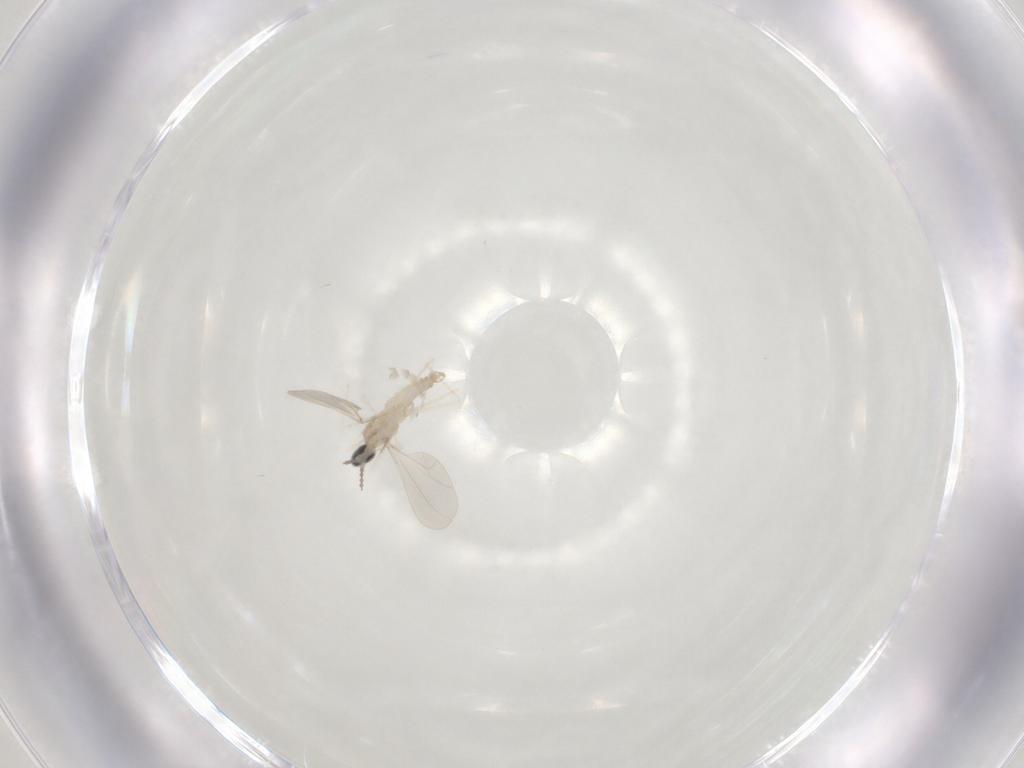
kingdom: Animalia
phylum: Arthropoda
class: Insecta
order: Diptera
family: Cecidomyiidae
